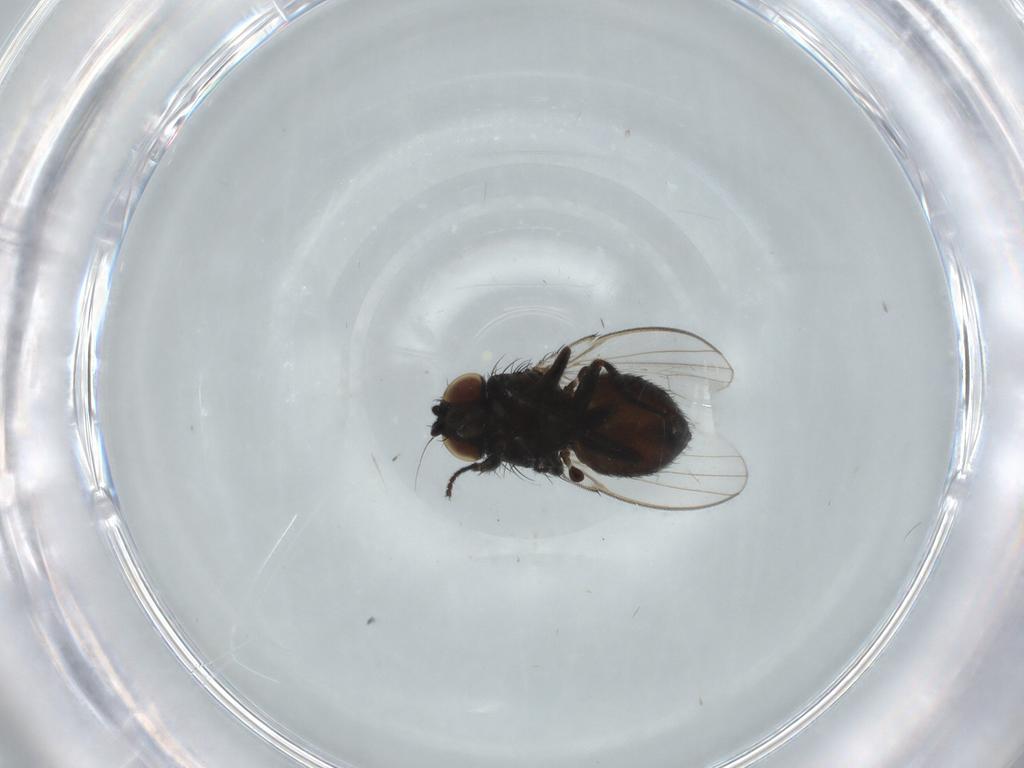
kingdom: Animalia
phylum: Arthropoda
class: Insecta
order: Diptera
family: Milichiidae
